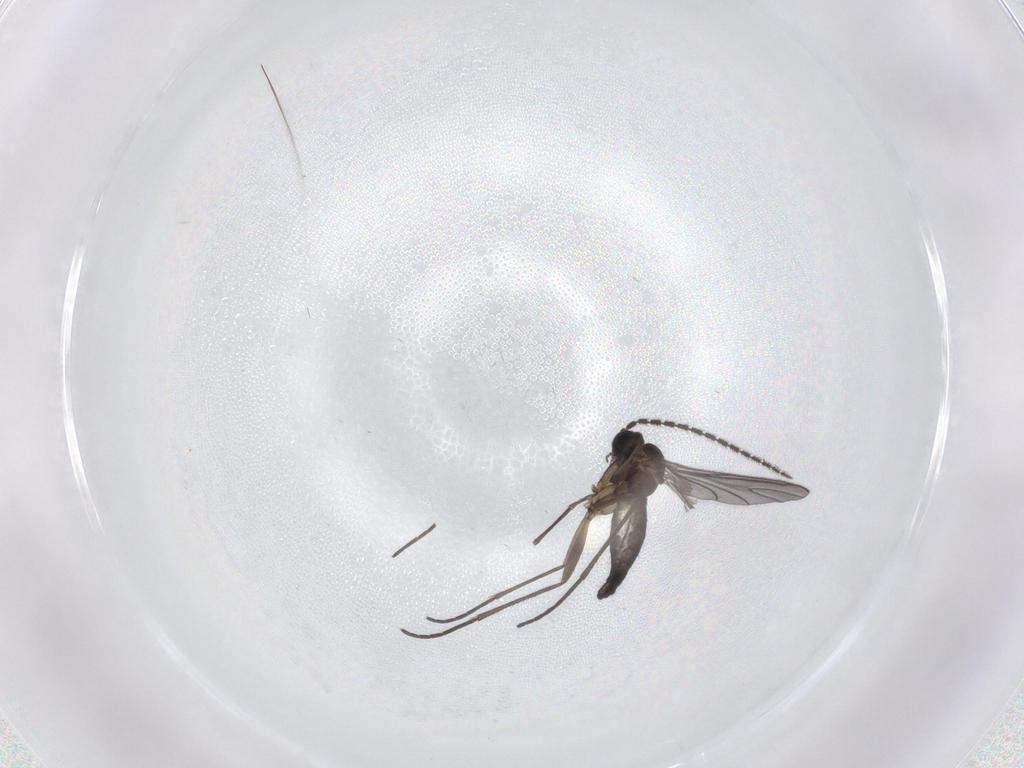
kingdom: Animalia
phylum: Arthropoda
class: Insecta
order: Diptera
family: Sciaridae
